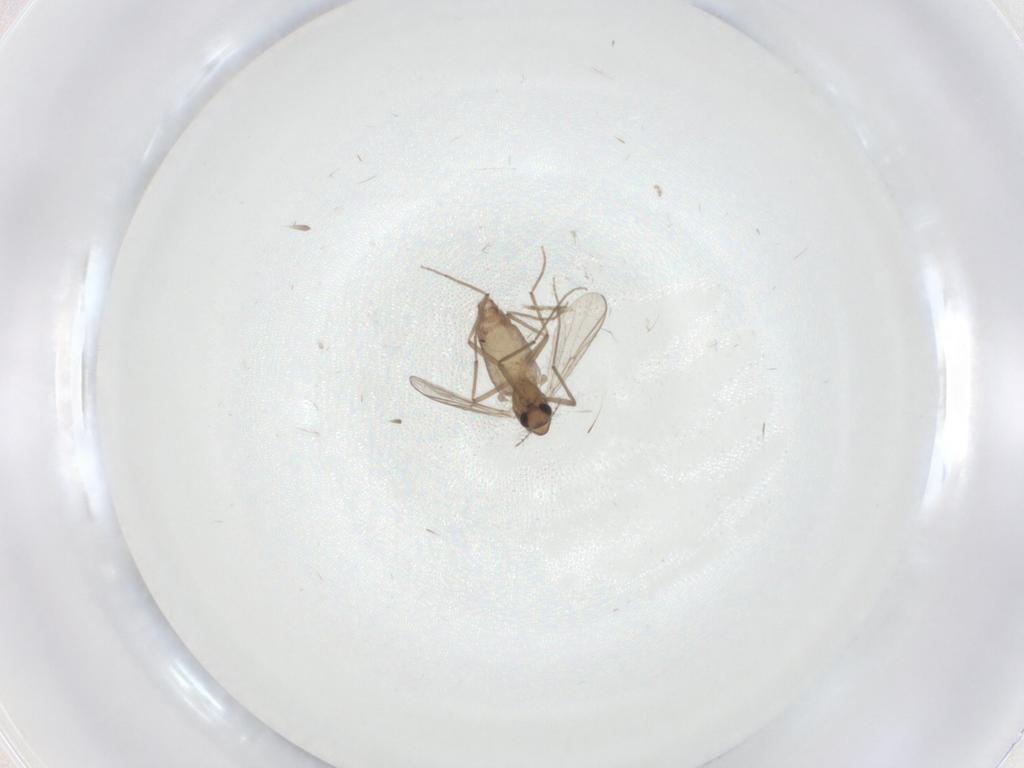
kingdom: Animalia
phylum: Arthropoda
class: Insecta
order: Diptera
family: Chironomidae
